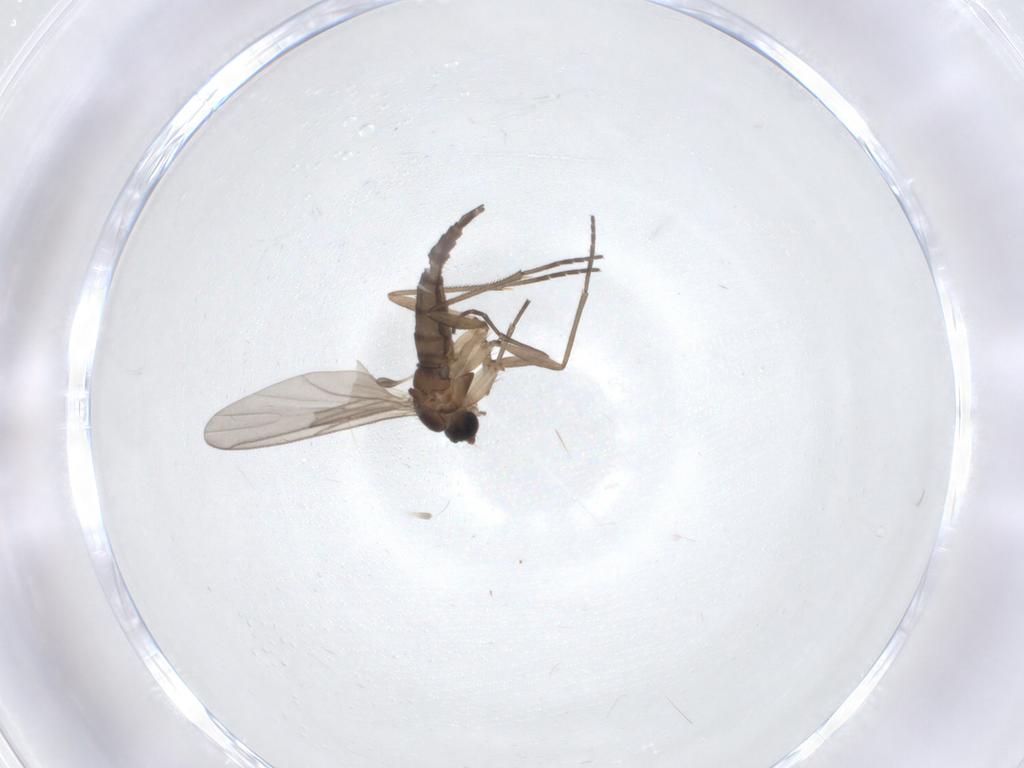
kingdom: Animalia
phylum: Arthropoda
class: Insecta
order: Diptera
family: Sciaridae
